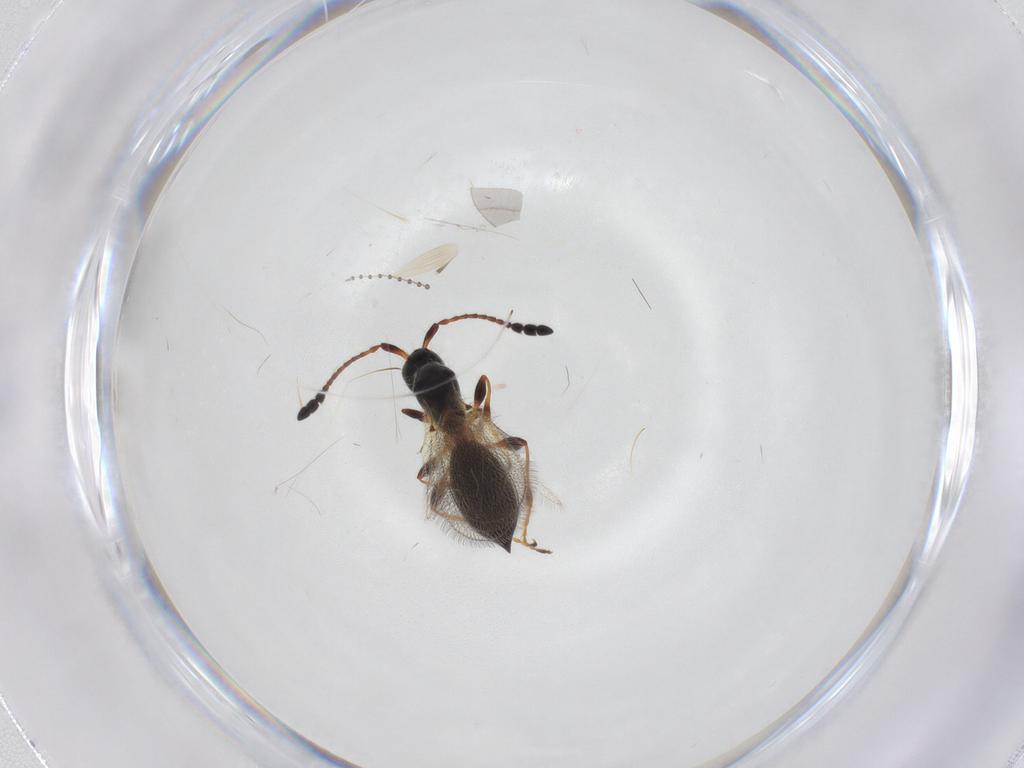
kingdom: Animalia
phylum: Arthropoda
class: Insecta
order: Hymenoptera
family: Diapriidae
